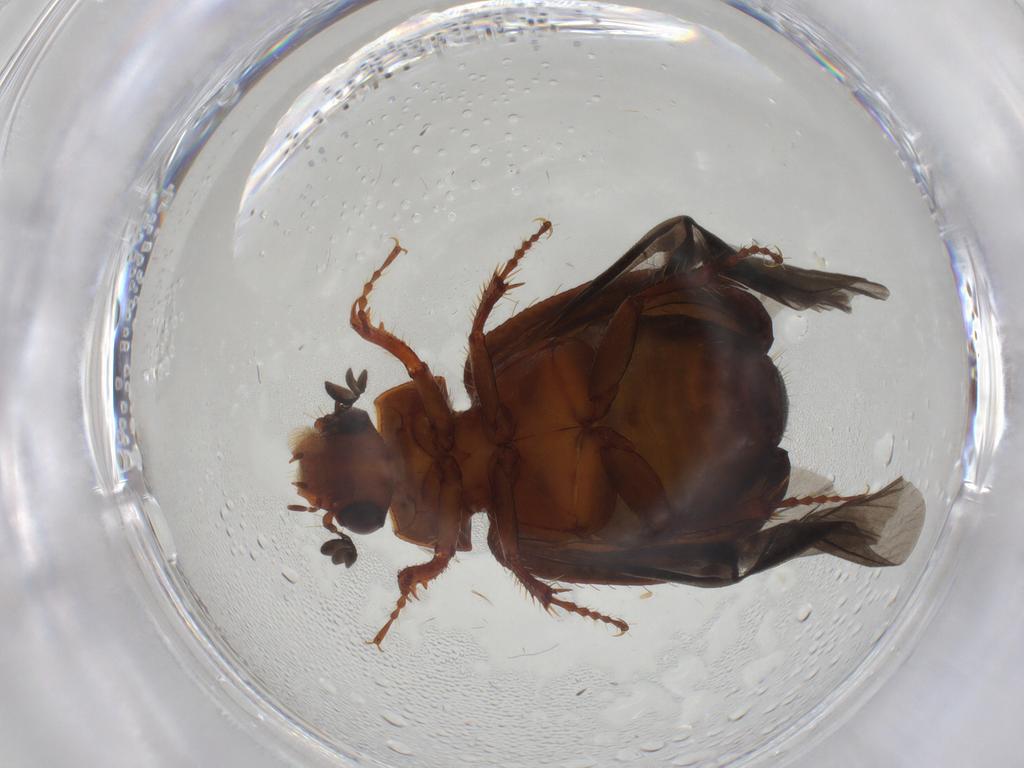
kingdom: Animalia
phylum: Arthropoda
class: Insecta
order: Coleoptera
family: Hybosoridae
